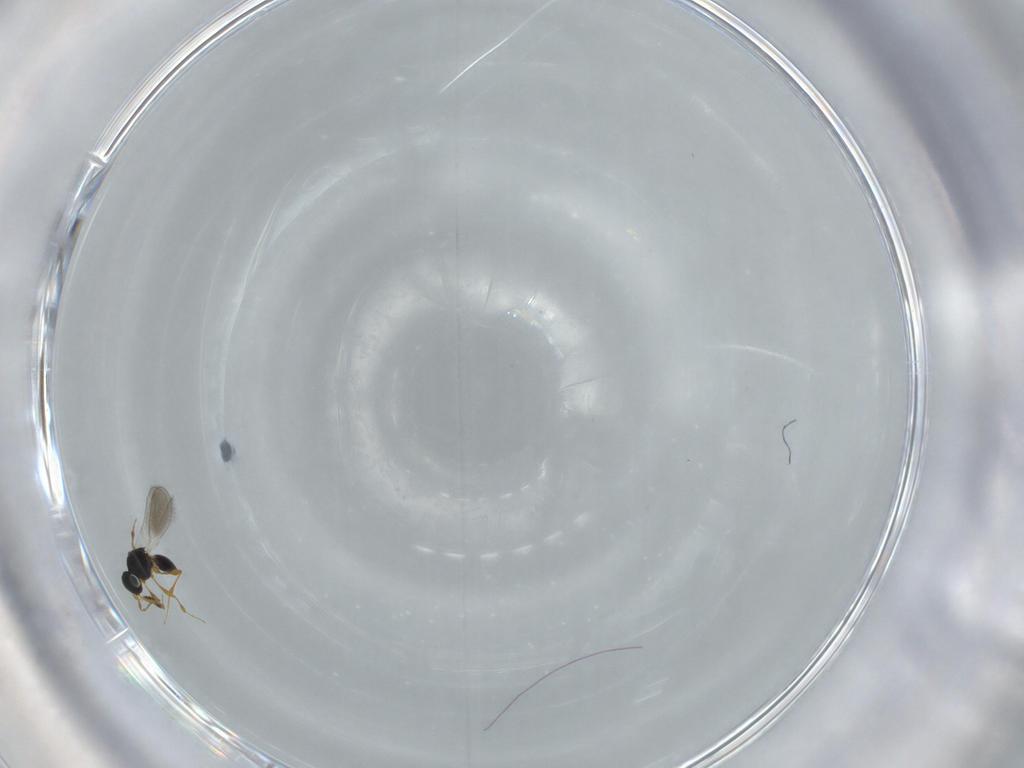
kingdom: Animalia
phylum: Arthropoda
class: Insecta
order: Hymenoptera
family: Platygastridae
